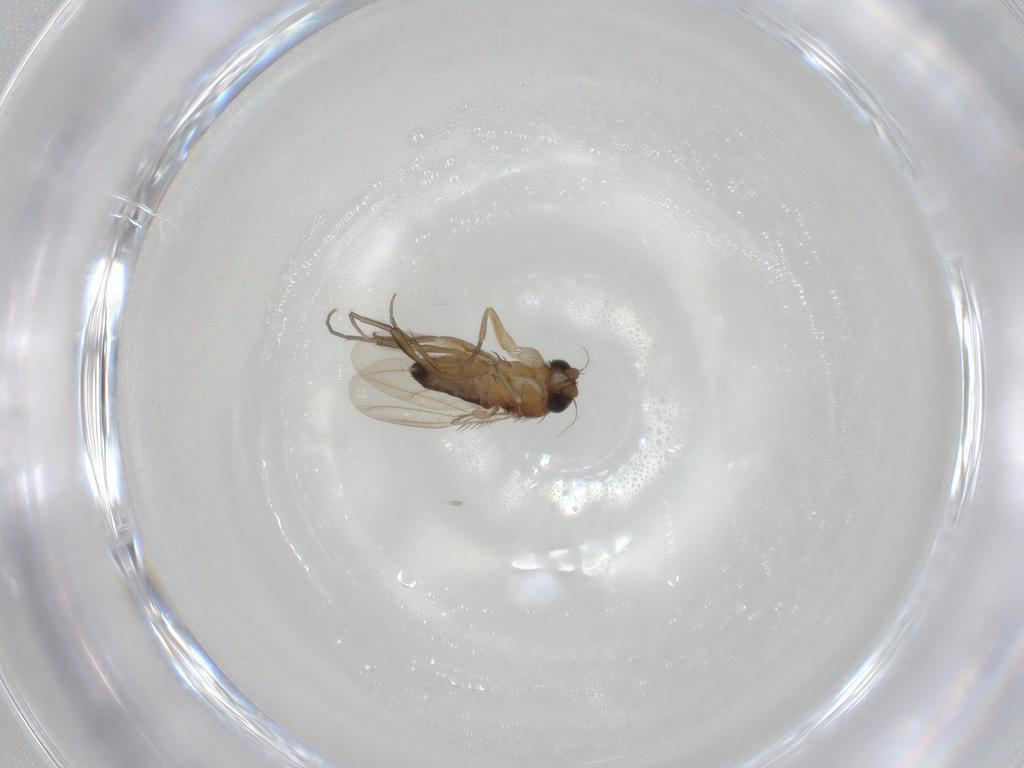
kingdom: Animalia
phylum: Arthropoda
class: Insecta
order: Diptera
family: Phoridae
